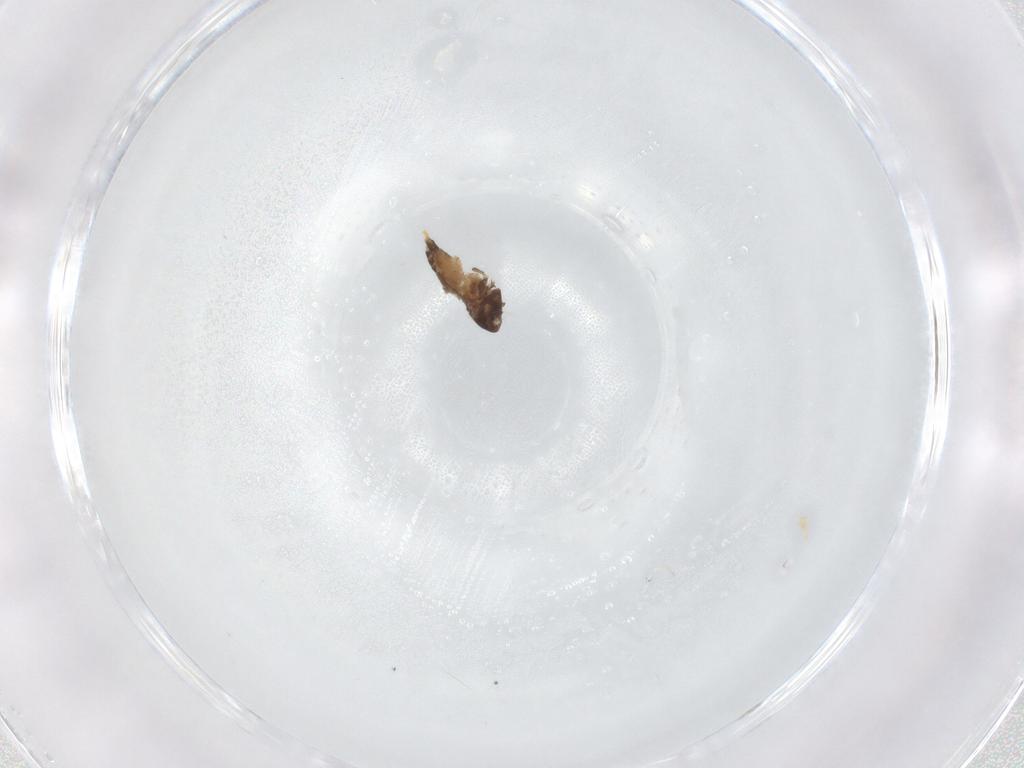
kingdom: Animalia
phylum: Arthropoda
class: Insecta
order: Diptera
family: Chironomidae
